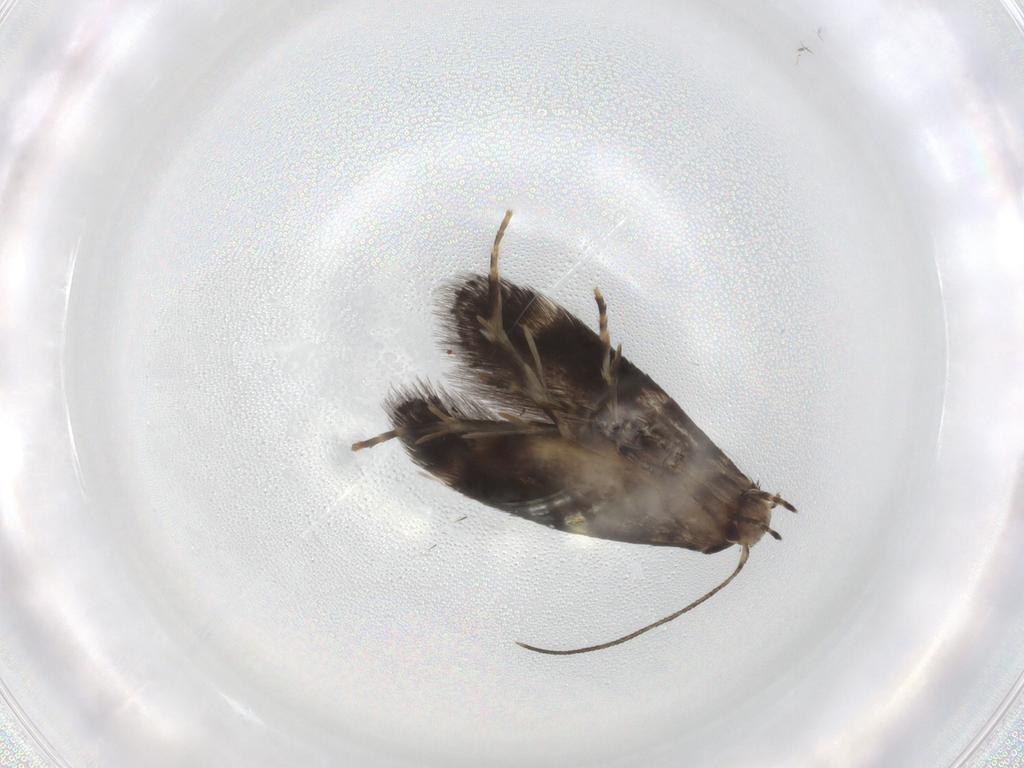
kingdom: Animalia
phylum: Arthropoda
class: Insecta
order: Lepidoptera
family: Elachistidae
